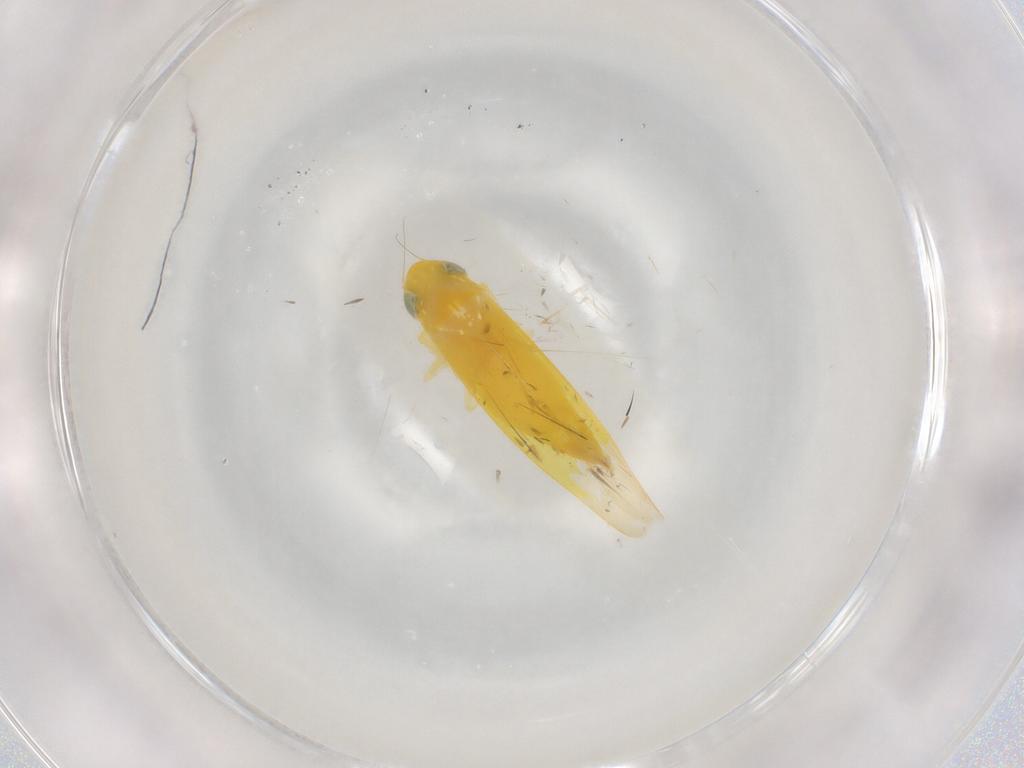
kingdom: Animalia
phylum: Arthropoda
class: Insecta
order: Hemiptera
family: Cicadellidae
